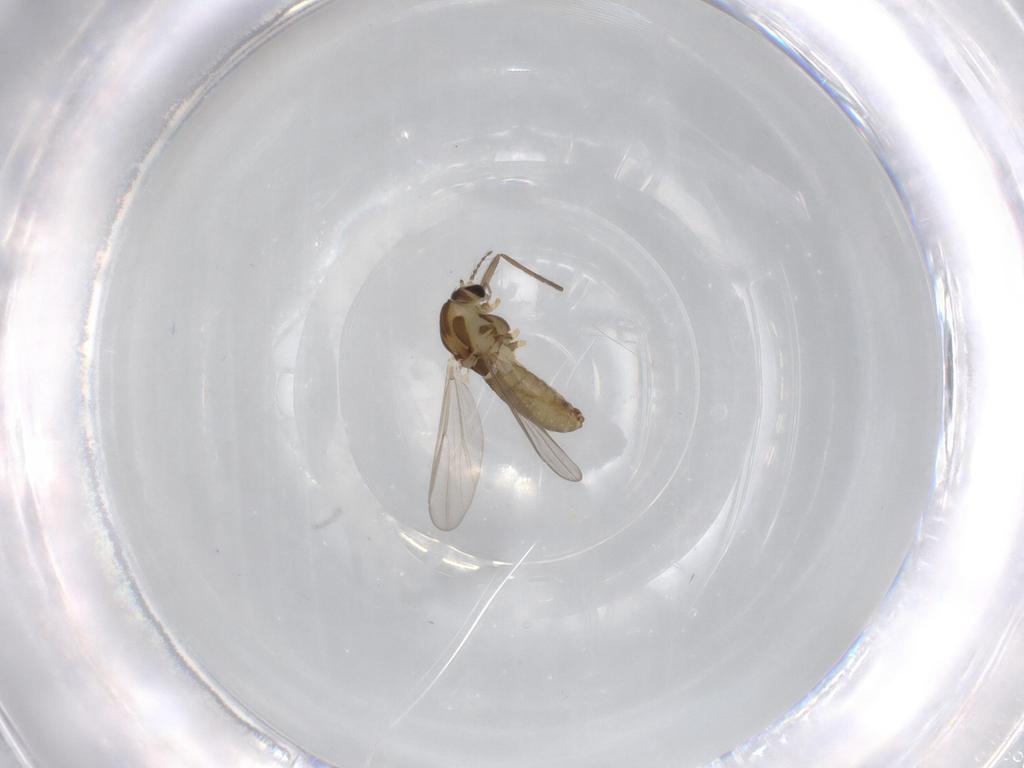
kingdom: Animalia
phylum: Arthropoda
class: Insecta
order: Diptera
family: Chironomidae
